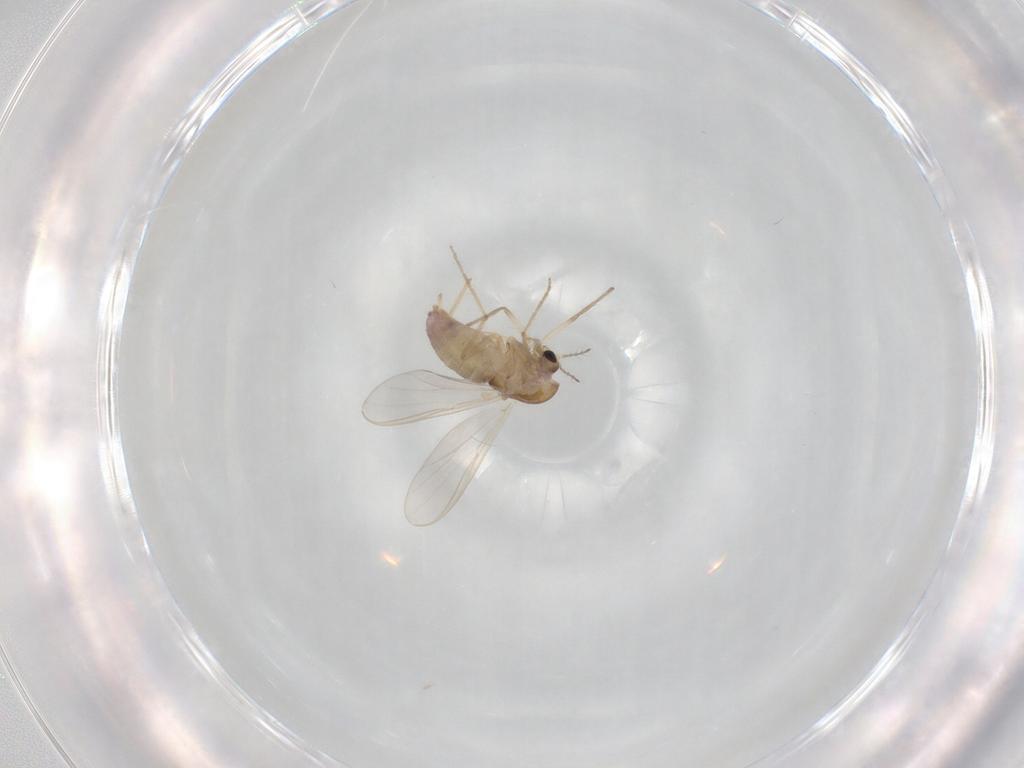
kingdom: Animalia
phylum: Arthropoda
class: Insecta
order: Diptera
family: Chironomidae
